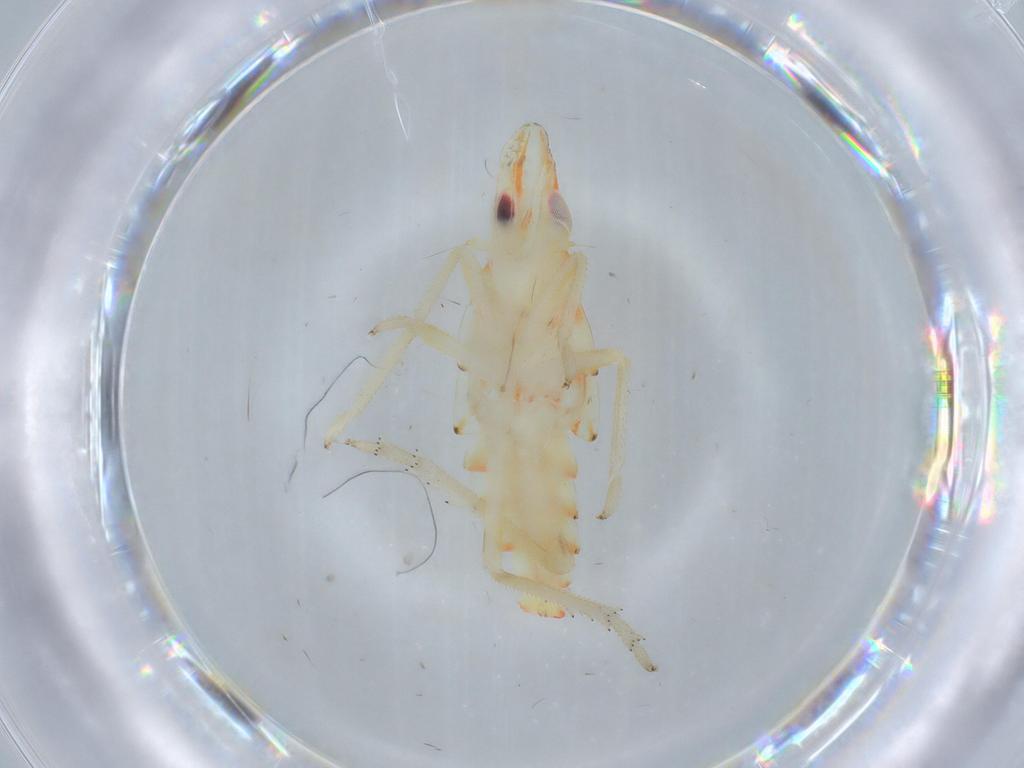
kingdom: Animalia
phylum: Arthropoda
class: Insecta
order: Hemiptera
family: Tropiduchidae
